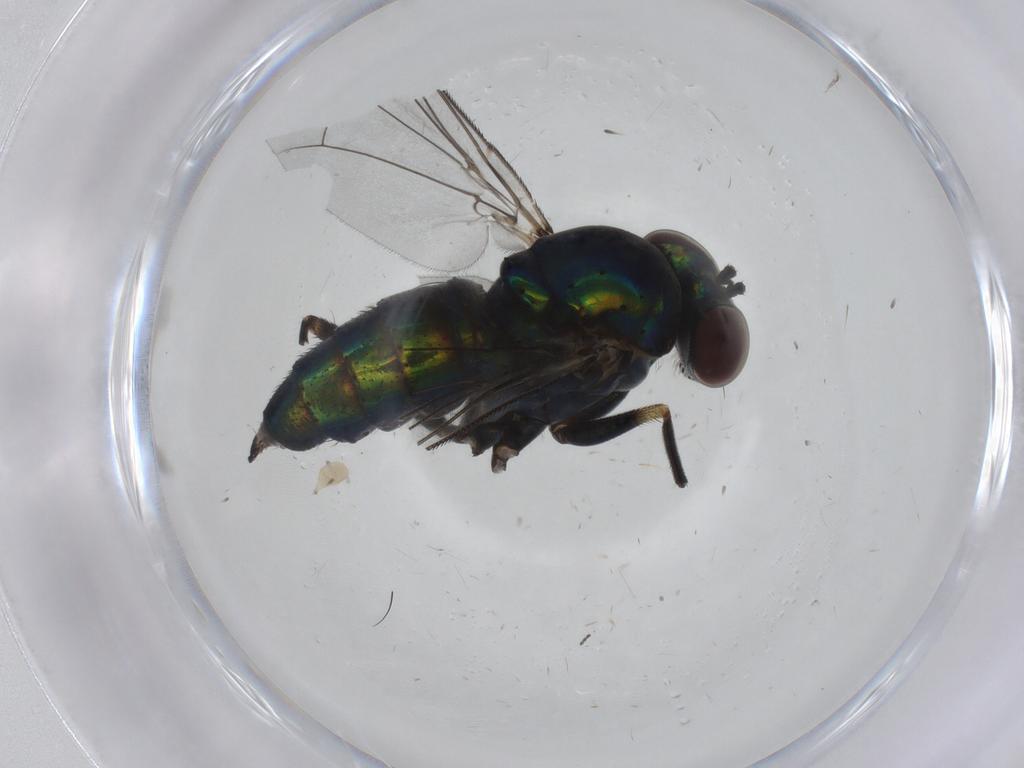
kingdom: Animalia
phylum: Arthropoda
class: Insecta
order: Diptera
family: Dolichopodidae
